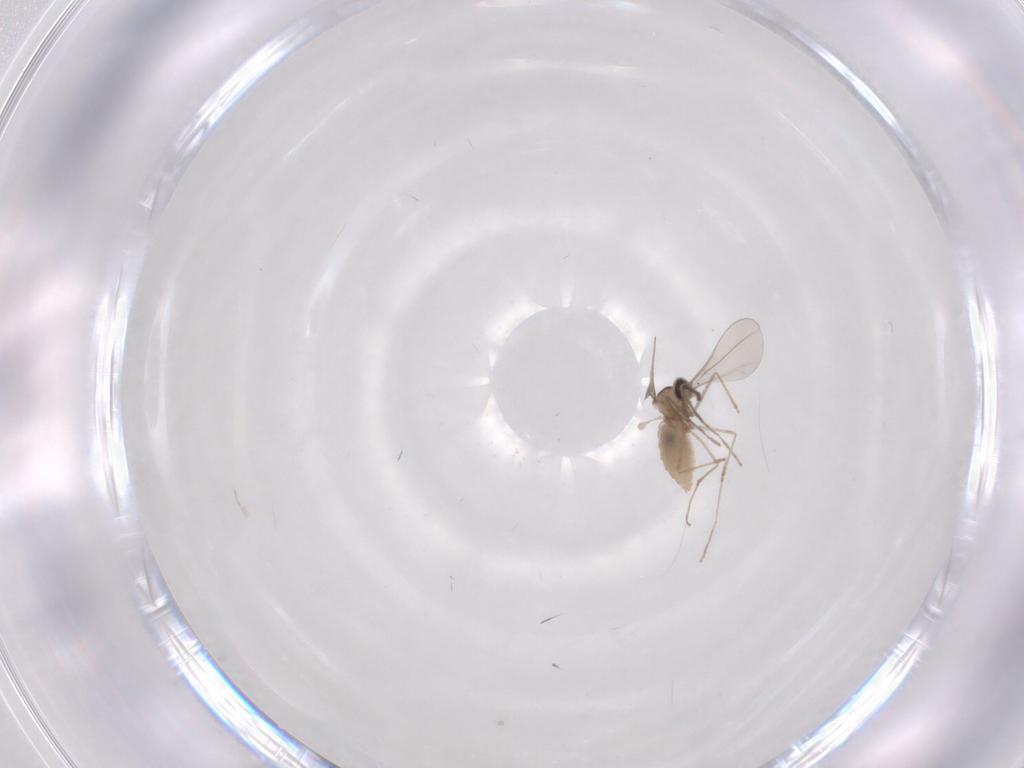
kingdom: Animalia
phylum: Arthropoda
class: Insecta
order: Diptera
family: Cecidomyiidae
